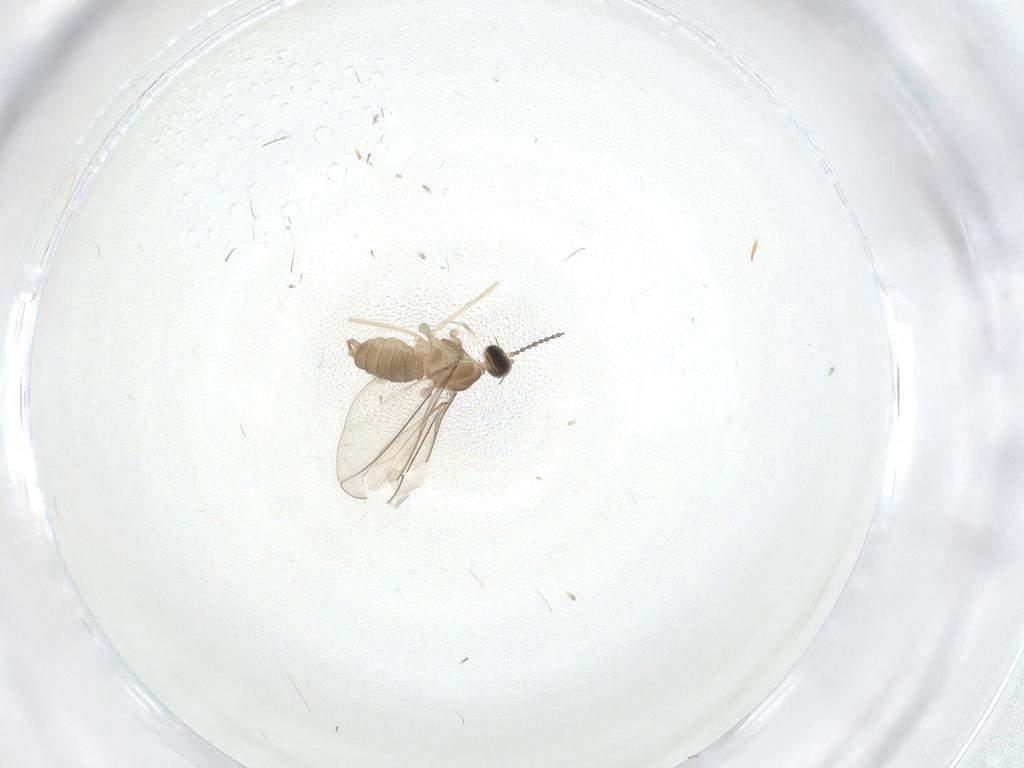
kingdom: Animalia
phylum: Arthropoda
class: Insecta
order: Diptera
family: Psychodidae
